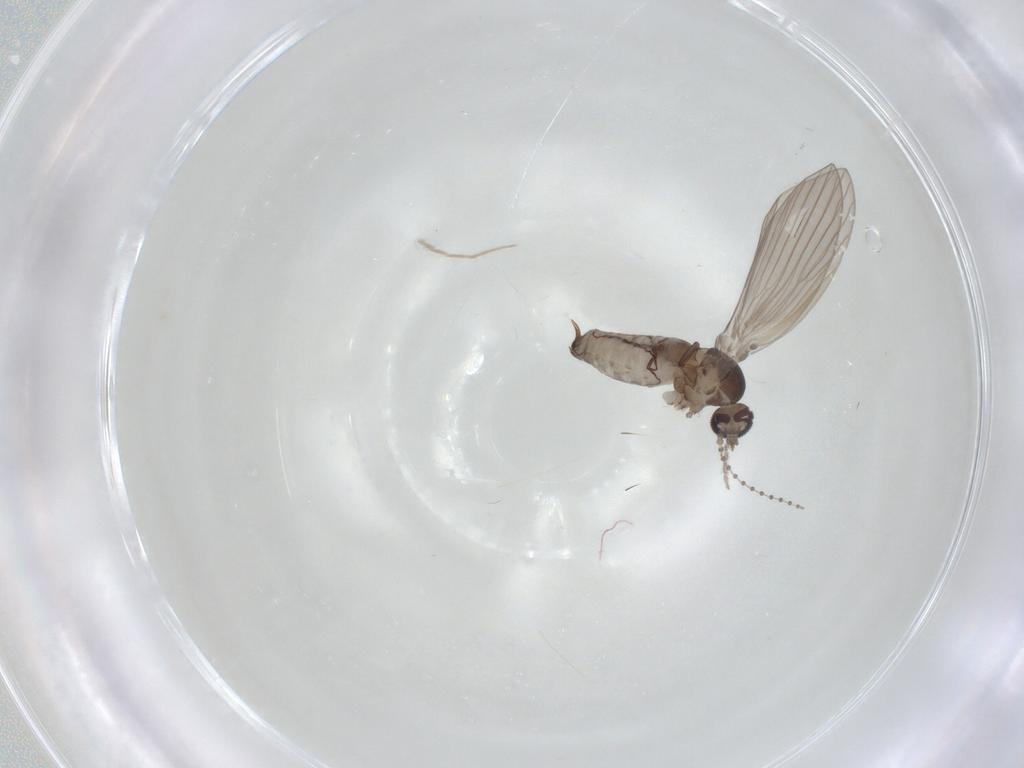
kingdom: Animalia
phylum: Arthropoda
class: Insecta
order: Diptera
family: Psychodidae
